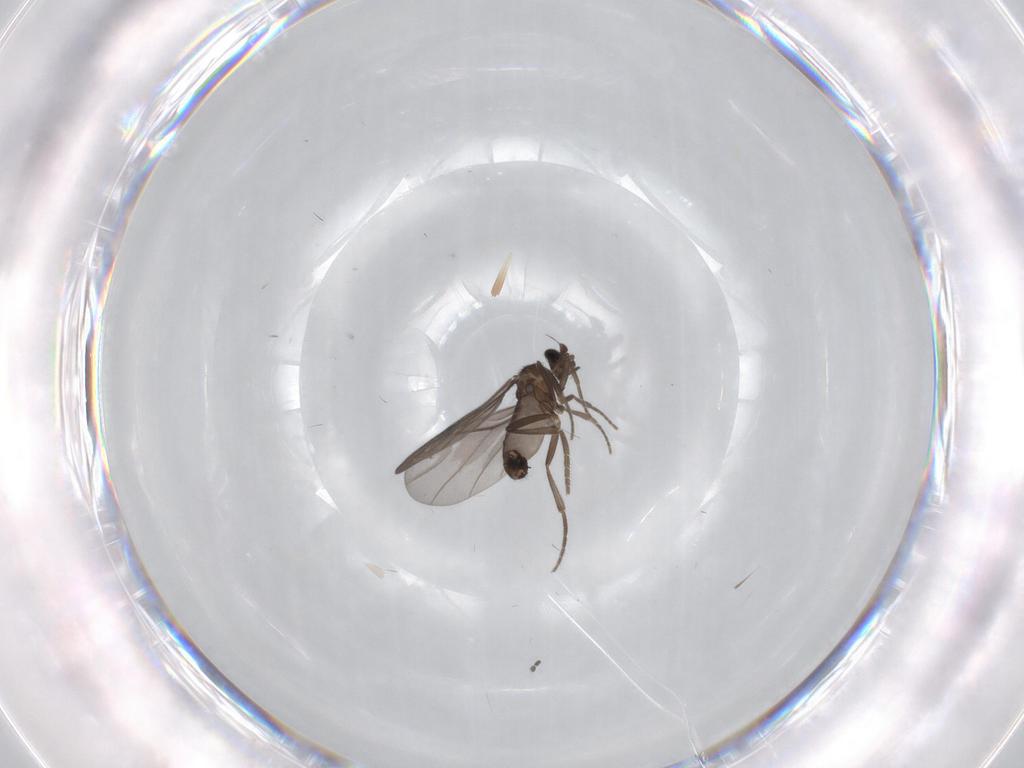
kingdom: Animalia
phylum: Arthropoda
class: Insecta
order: Diptera
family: Phoridae
